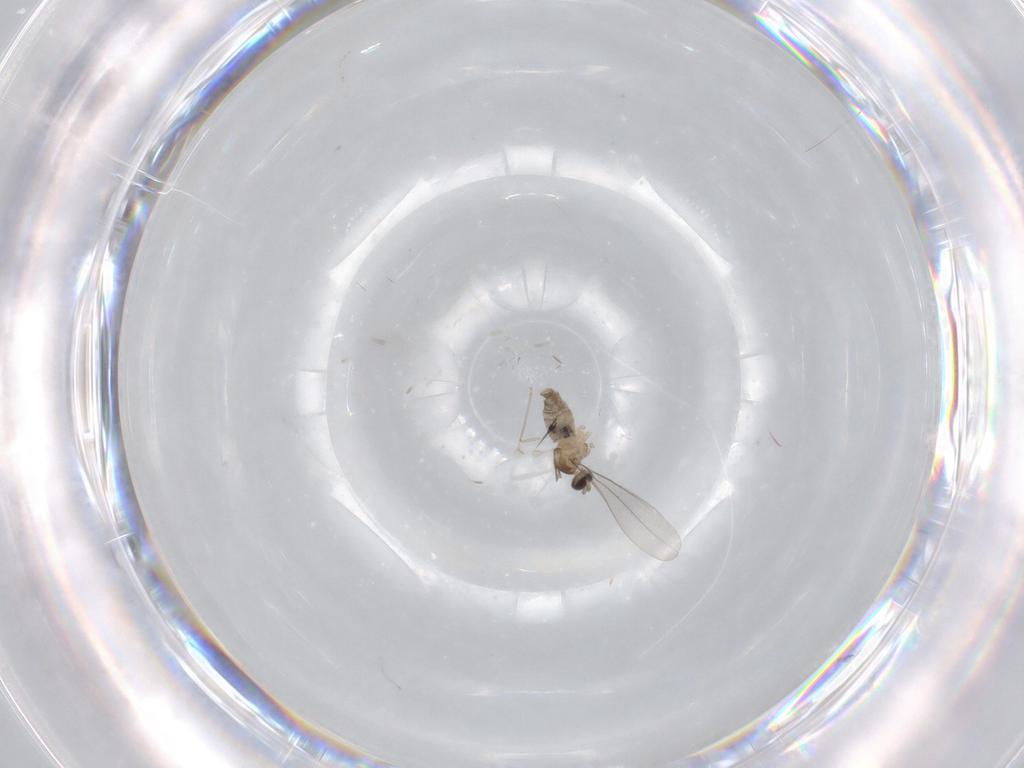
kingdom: Animalia
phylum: Arthropoda
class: Insecta
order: Diptera
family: Cecidomyiidae
